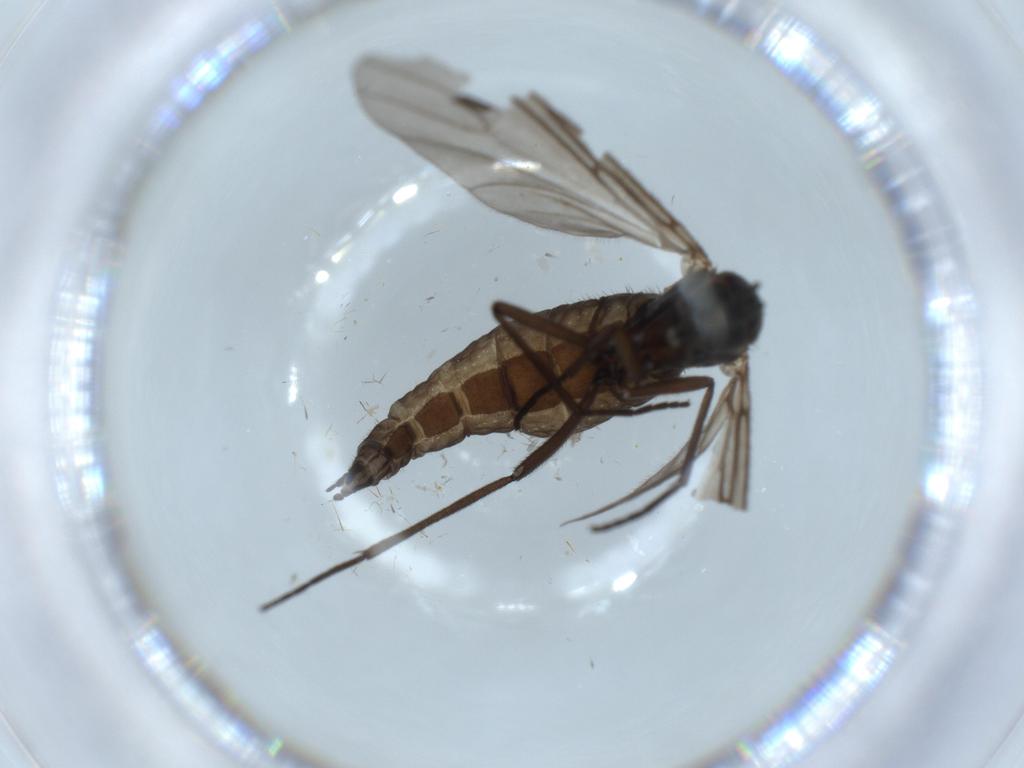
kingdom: Animalia
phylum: Arthropoda
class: Insecta
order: Diptera
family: Sciaridae
